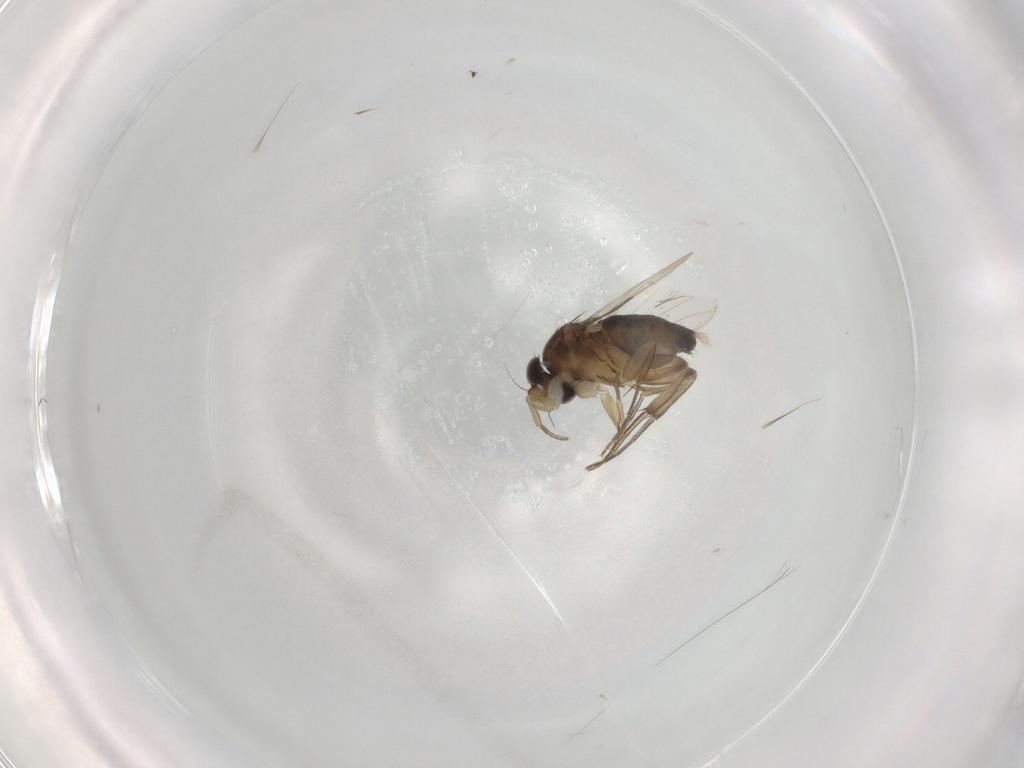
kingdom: Animalia
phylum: Arthropoda
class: Insecta
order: Diptera
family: Phoridae
